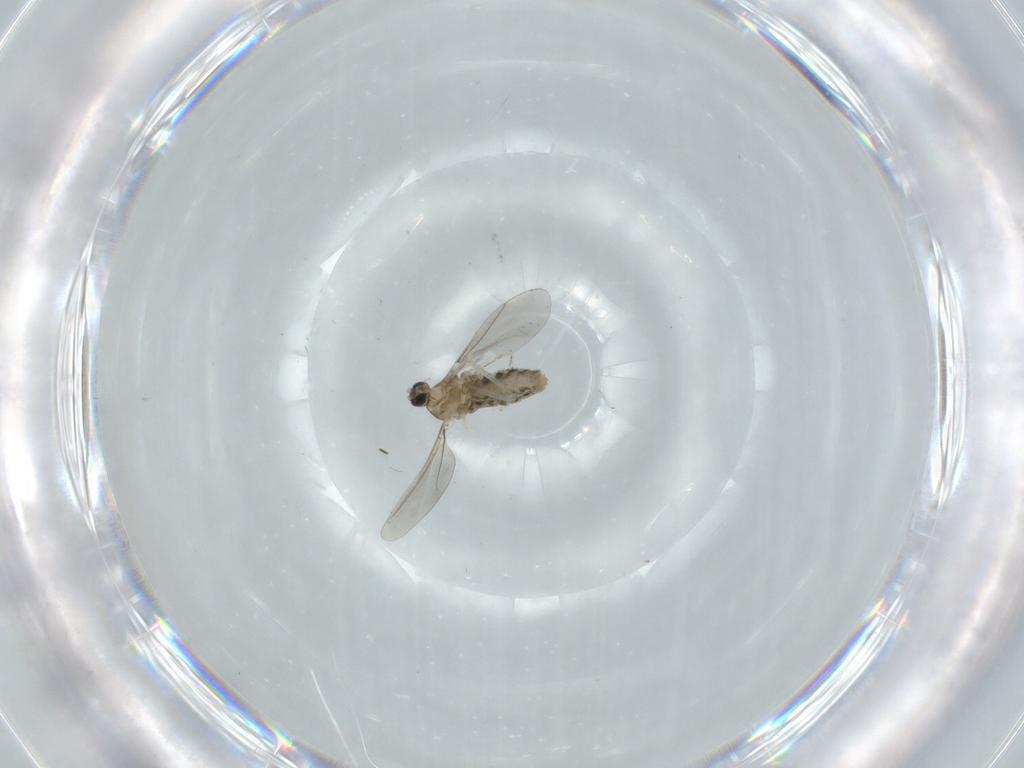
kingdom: Animalia
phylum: Arthropoda
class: Insecta
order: Diptera
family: Cecidomyiidae
